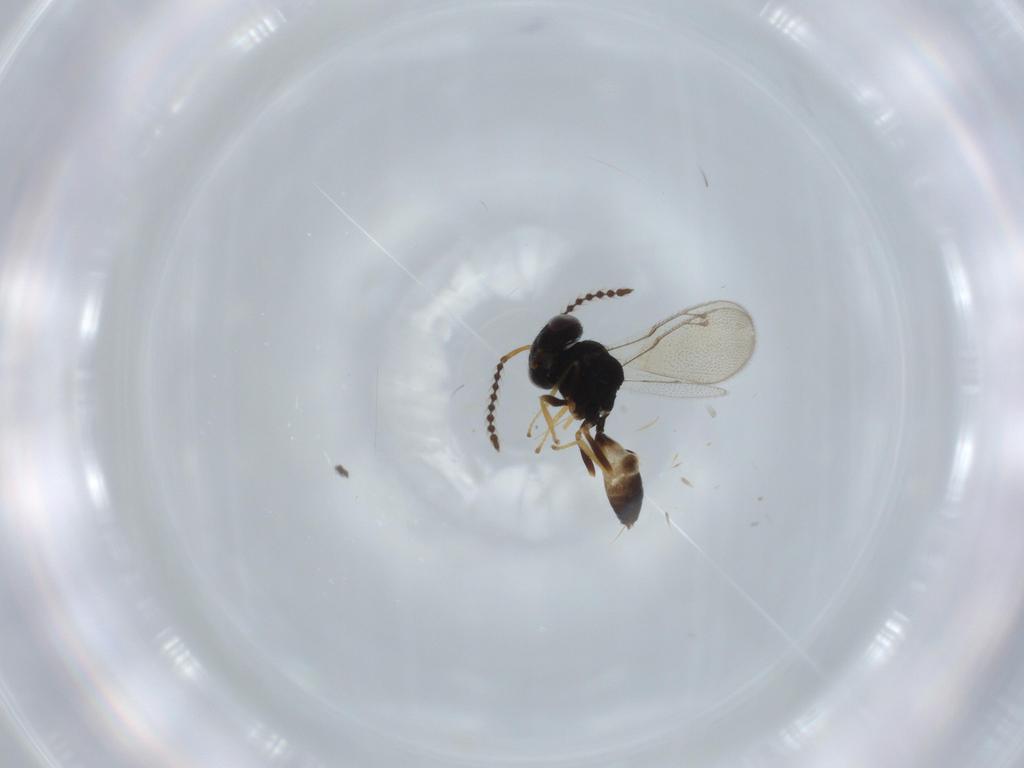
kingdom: Animalia
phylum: Arthropoda
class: Insecta
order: Hymenoptera
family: Pteromalidae
